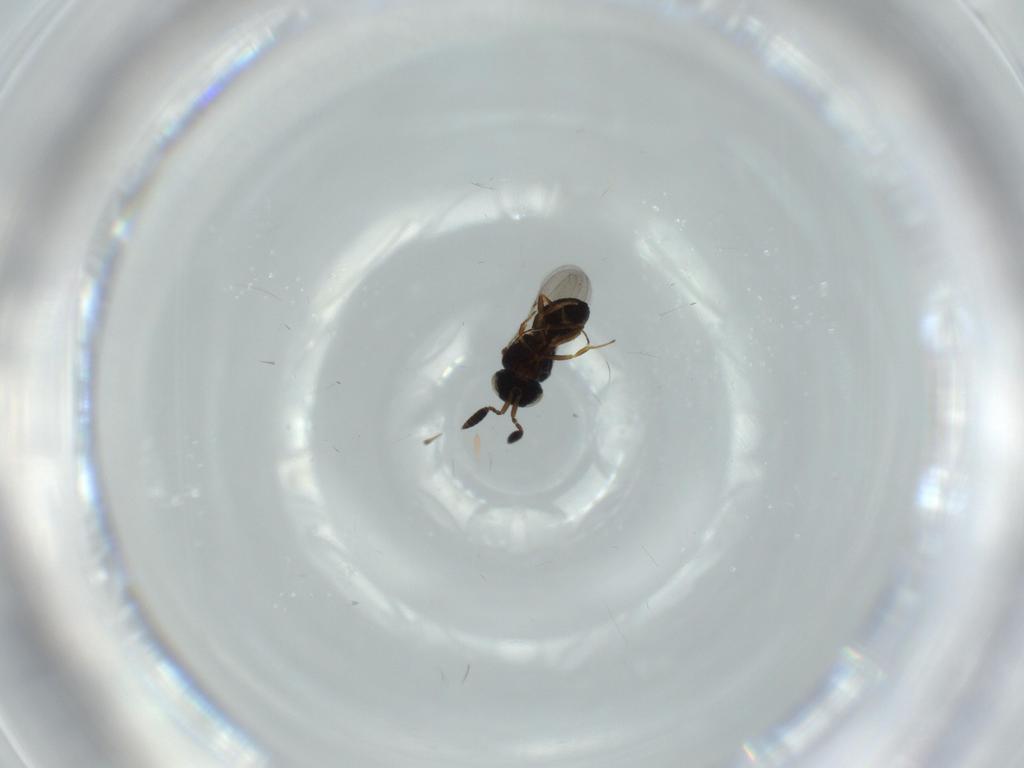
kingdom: Animalia
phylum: Arthropoda
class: Insecta
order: Hymenoptera
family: Scelionidae
